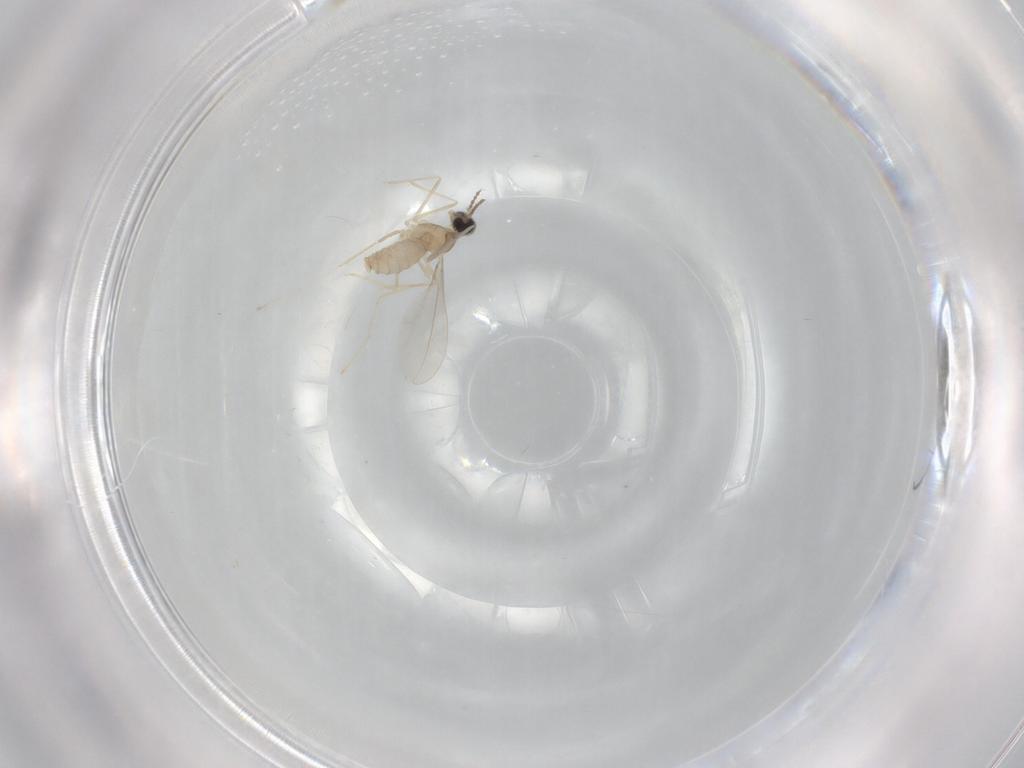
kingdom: Animalia
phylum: Arthropoda
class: Insecta
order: Diptera
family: Cecidomyiidae
